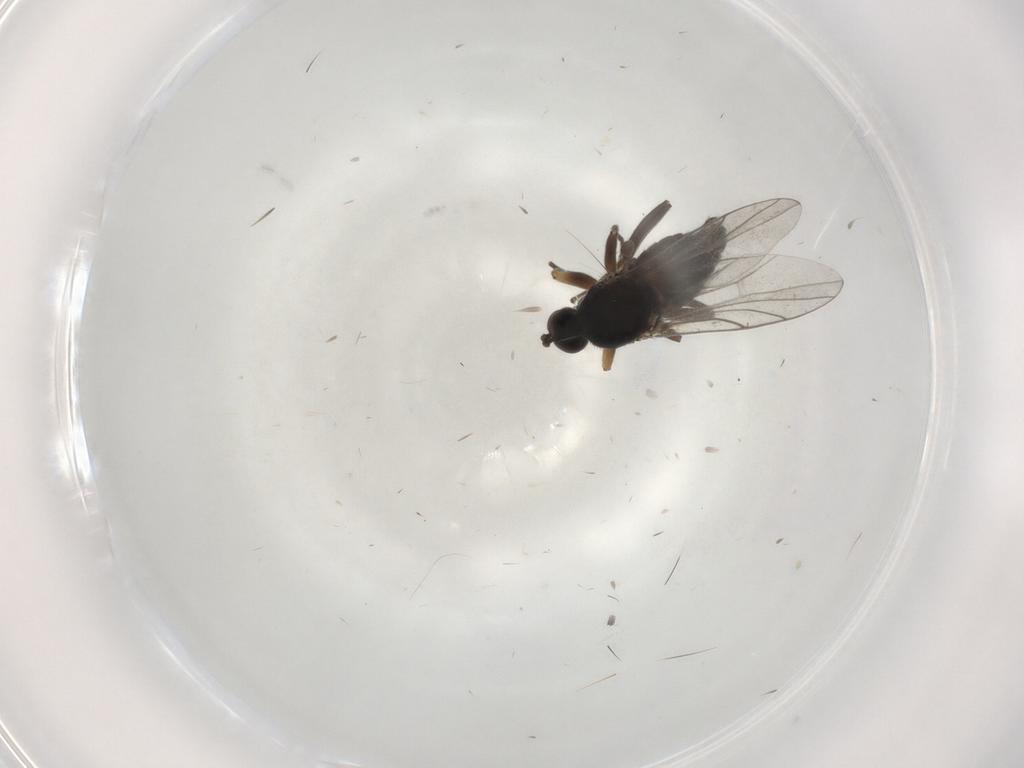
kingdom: Animalia
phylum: Arthropoda
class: Insecta
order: Diptera
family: Hybotidae
